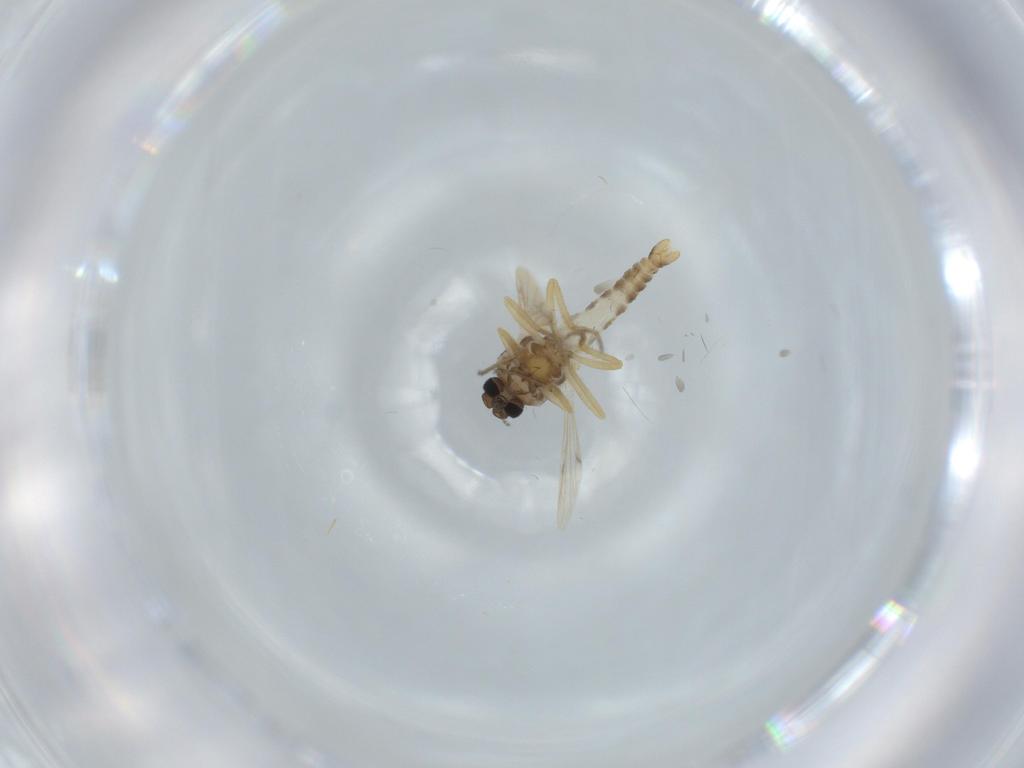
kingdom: Animalia
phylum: Arthropoda
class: Insecta
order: Diptera
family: Ceratopogonidae
